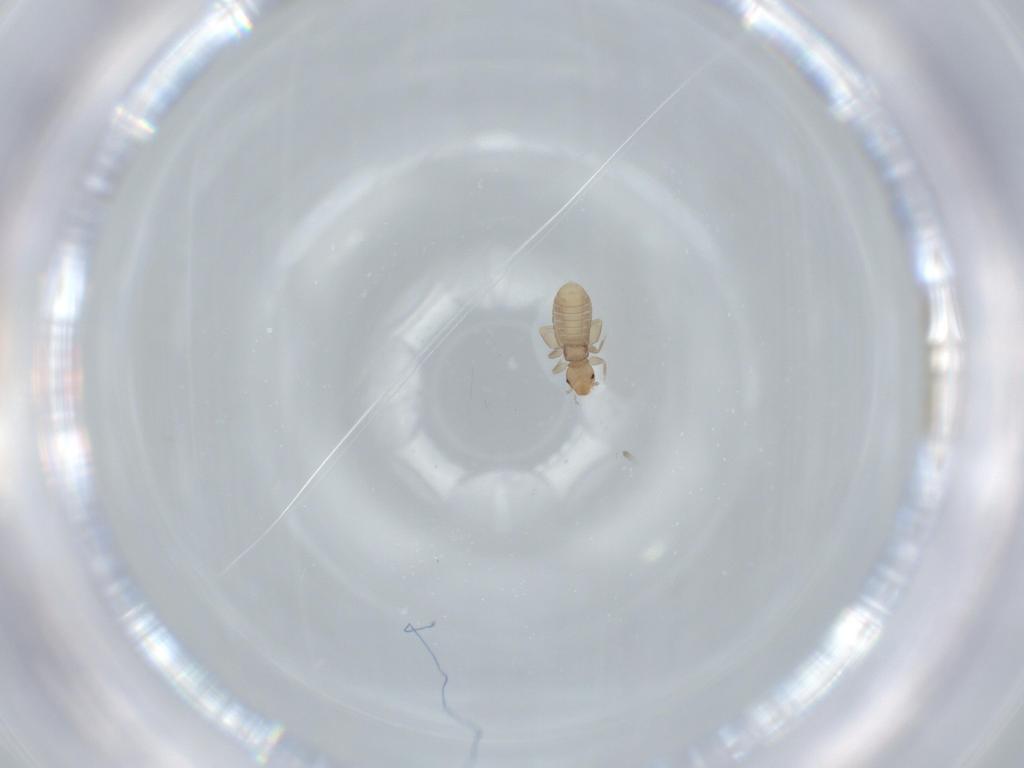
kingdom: Animalia
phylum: Arthropoda
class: Insecta
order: Psocodea
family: Liposcelididae
